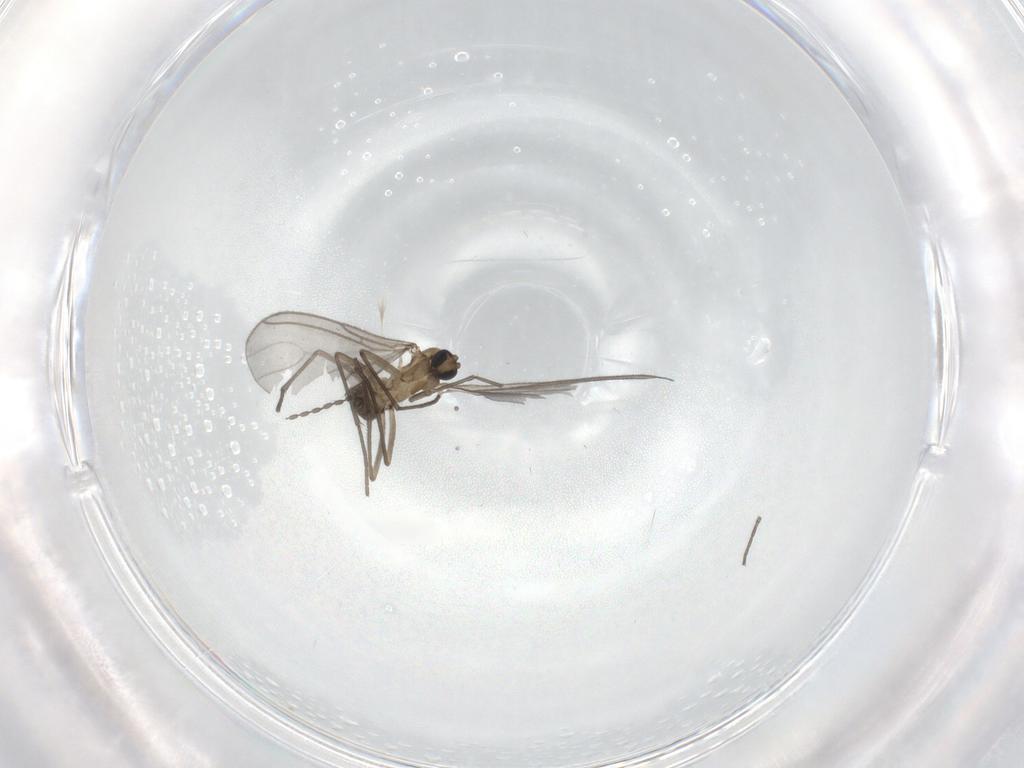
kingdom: Animalia
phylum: Arthropoda
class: Insecta
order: Diptera
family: Sciaridae
